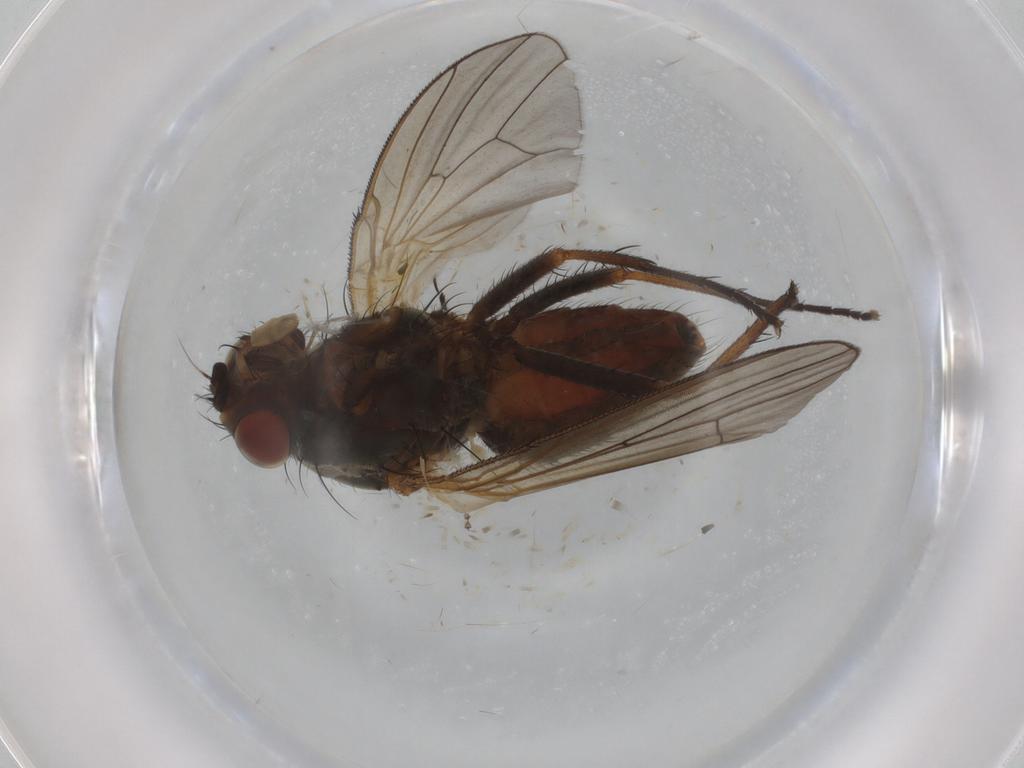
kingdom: Animalia
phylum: Arthropoda
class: Insecta
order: Diptera
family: Anthomyiidae
